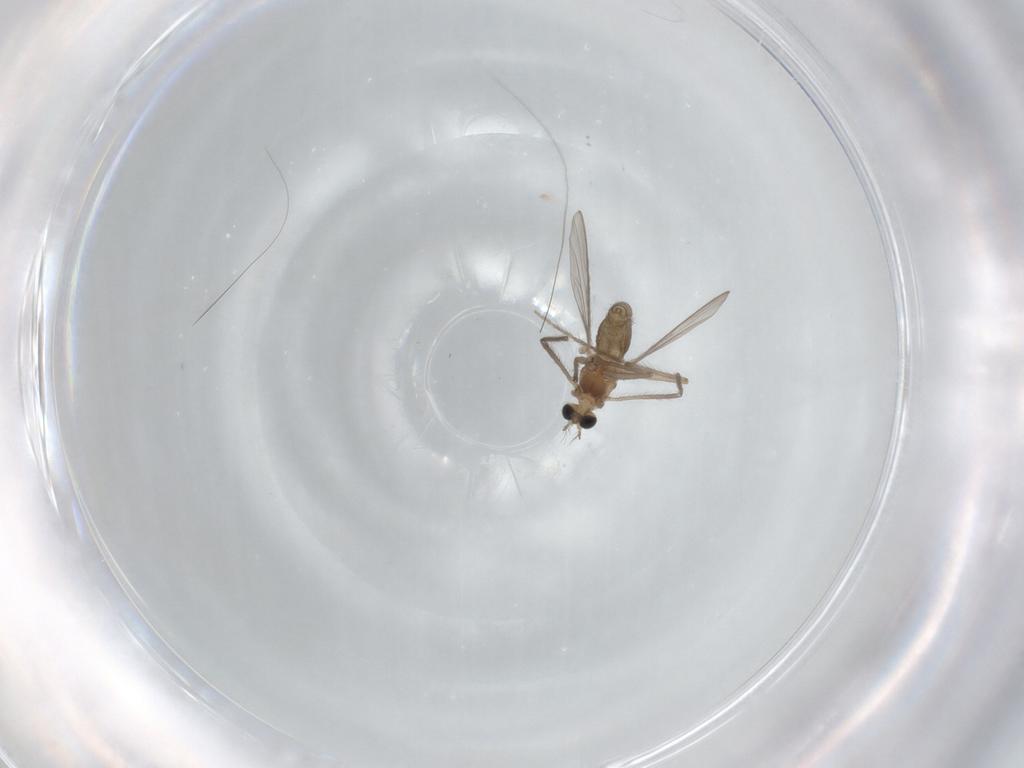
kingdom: Animalia
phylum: Arthropoda
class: Insecta
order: Diptera
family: Chironomidae
